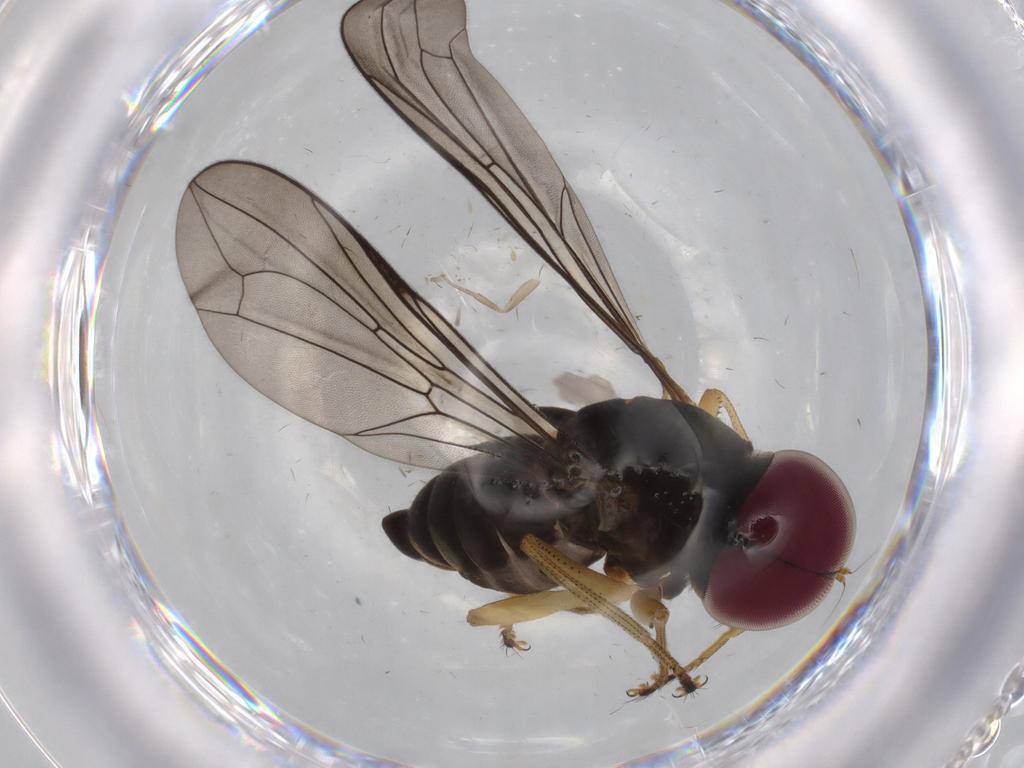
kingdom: Animalia
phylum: Arthropoda
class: Insecta
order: Diptera
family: Pipunculidae
